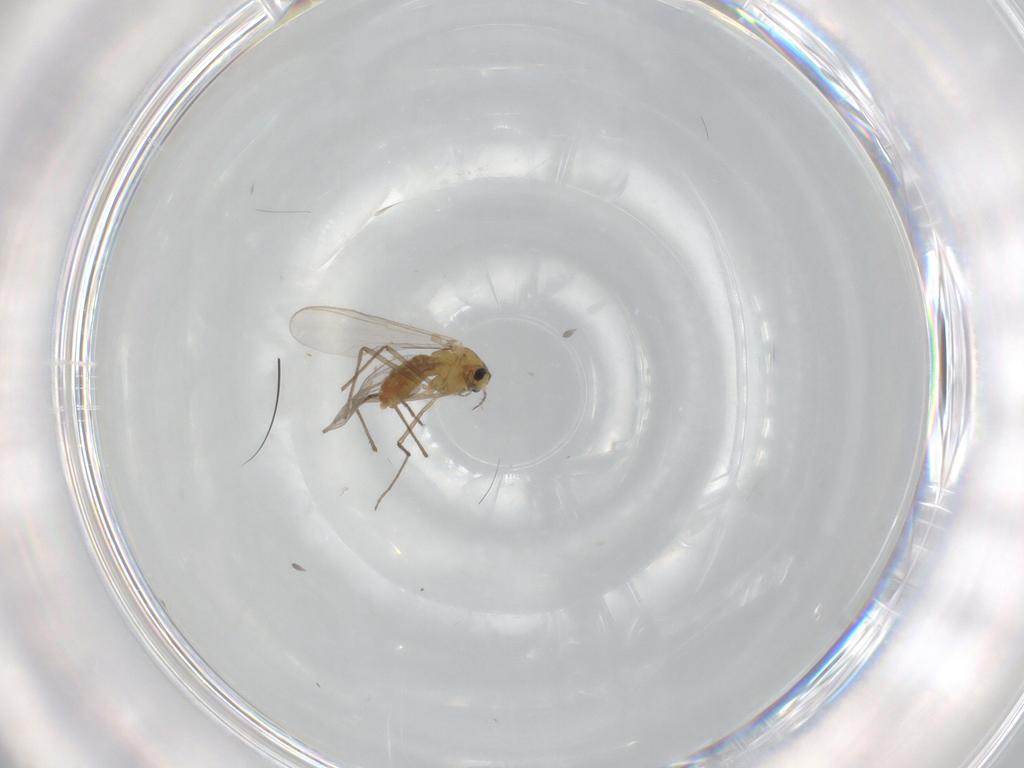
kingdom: Animalia
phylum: Arthropoda
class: Insecta
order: Diptera
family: Chironomidae
